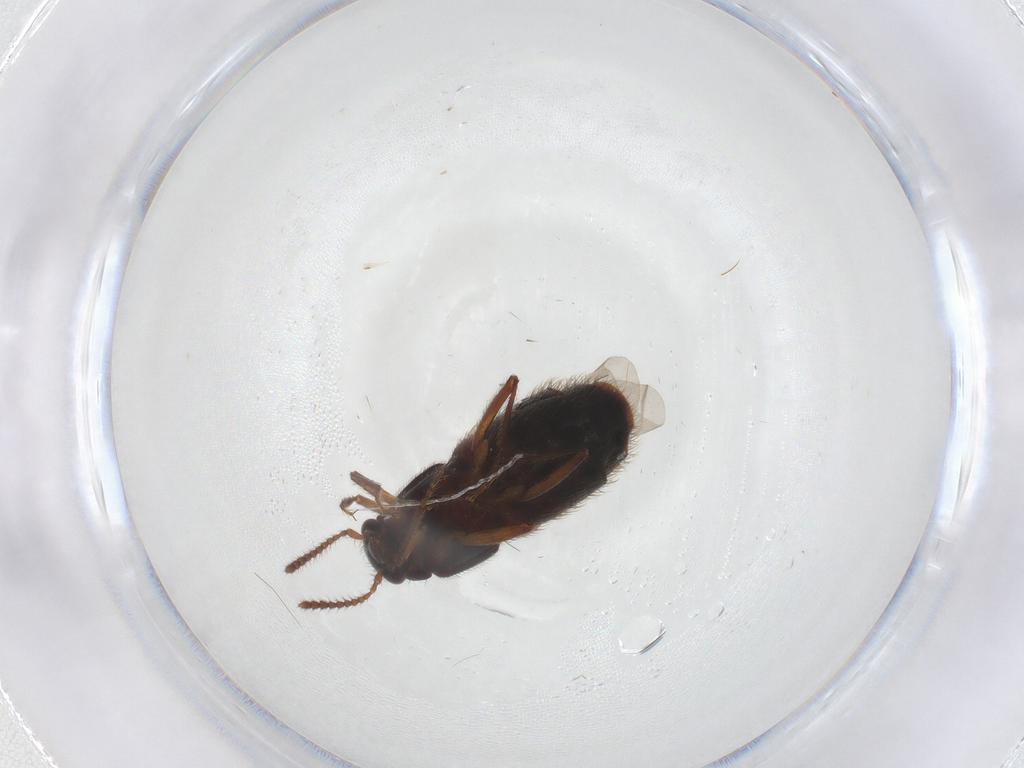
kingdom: Animalia
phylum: Arthropoda
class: Insecta
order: Coleoptera
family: Staphylinidae
